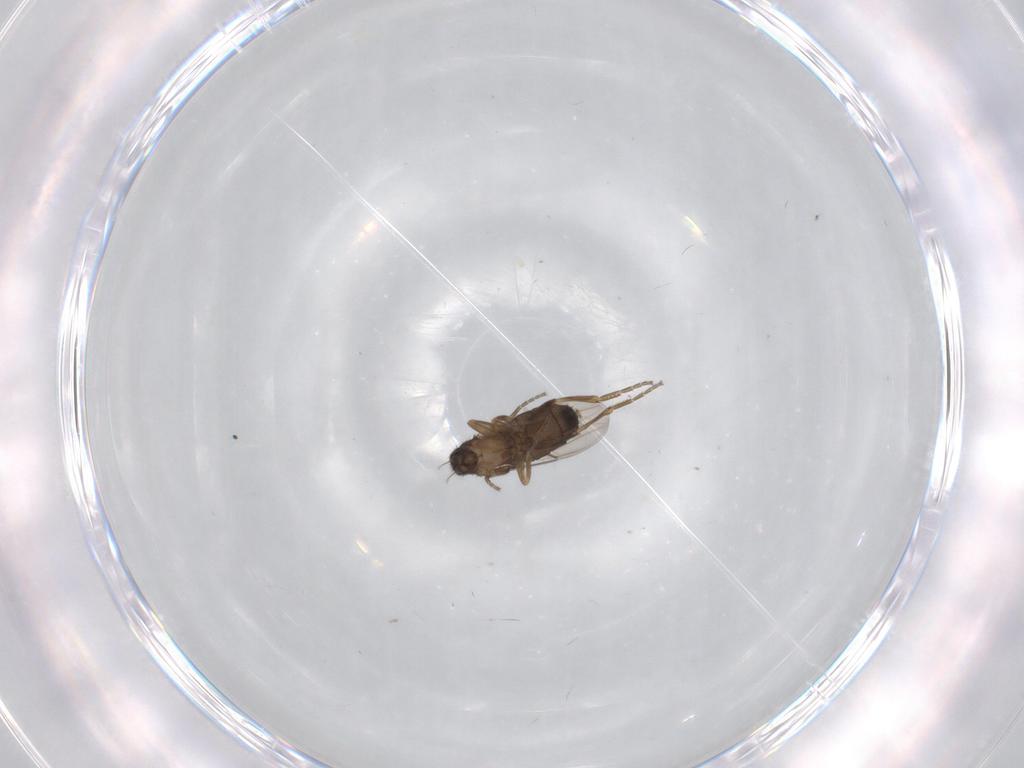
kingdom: Animalia
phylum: Arthropoda
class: Insecta
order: Diptera
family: Phoridae
